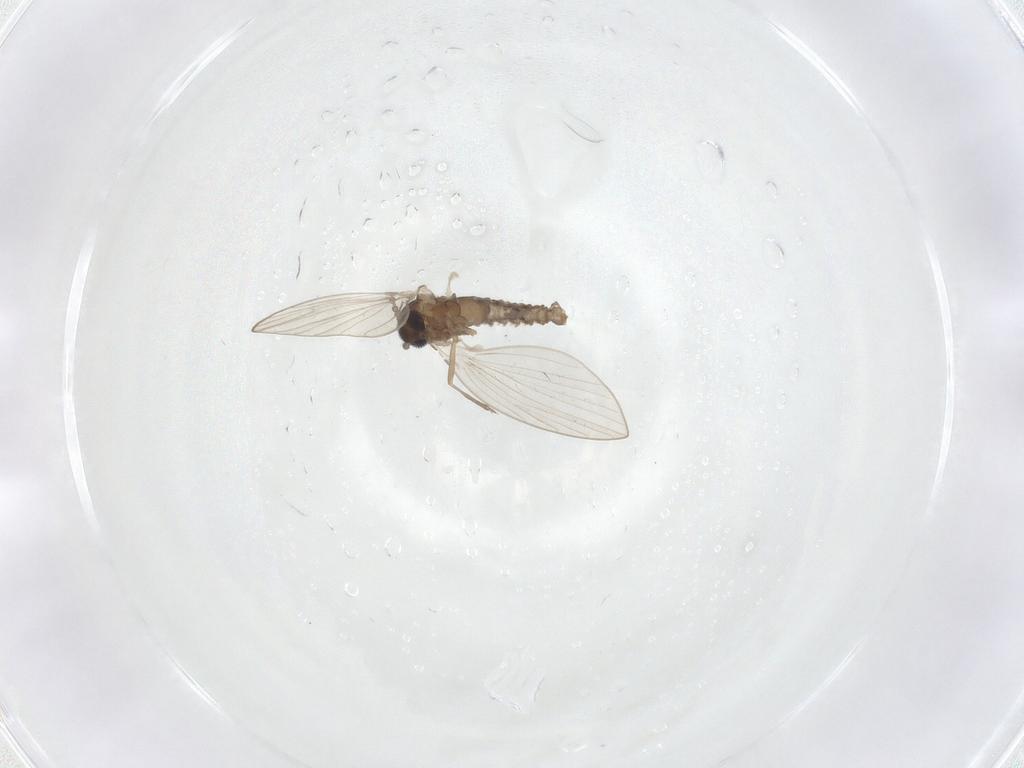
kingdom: Animalia
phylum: Arthropoda
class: Insecta
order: Diptera
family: Psychodidae
